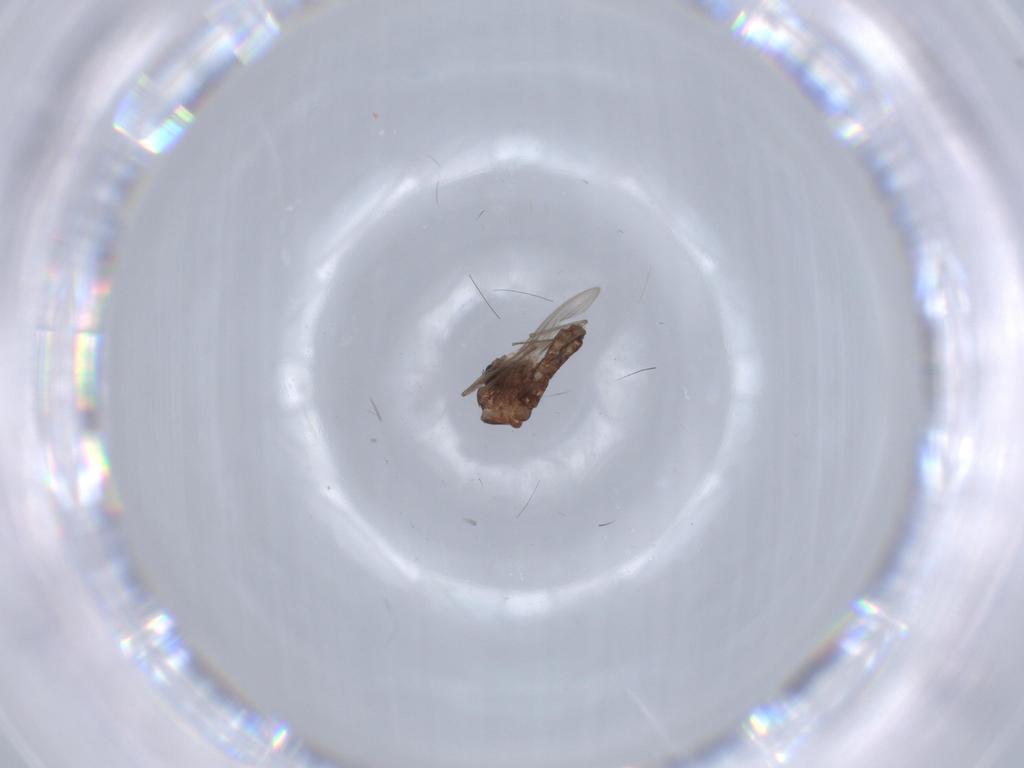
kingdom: Animalia
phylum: Arthropoda
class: Insecta
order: Diptera
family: Chironomidae
